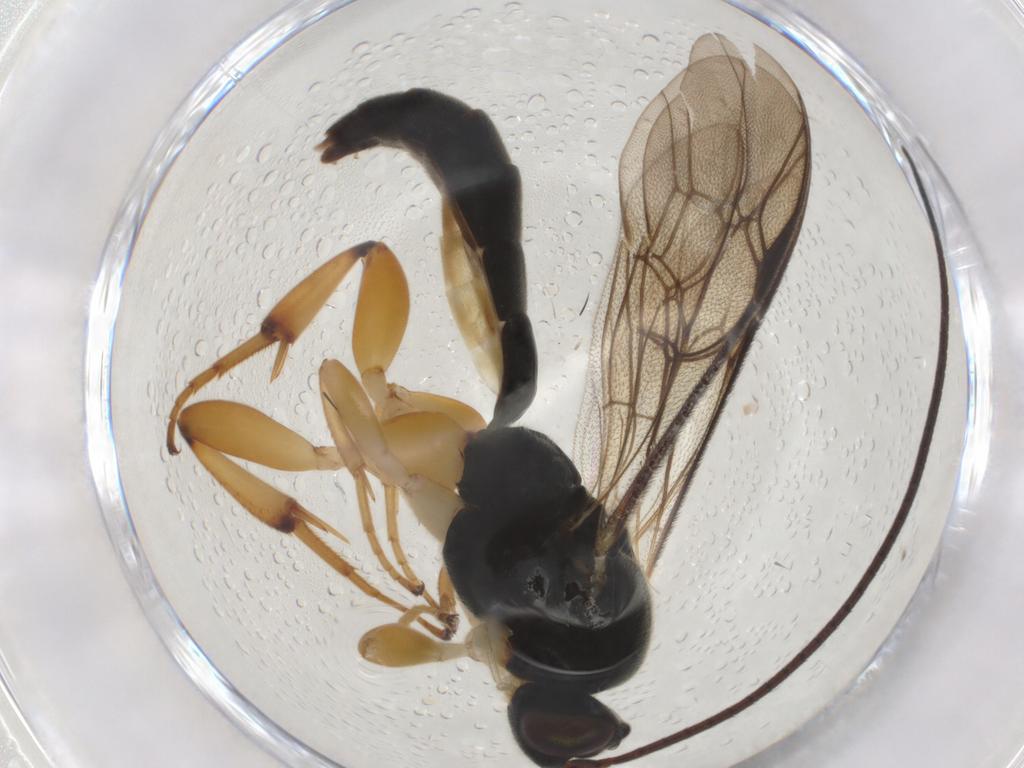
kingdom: Animalia
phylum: Arthropoda
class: Insecta
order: Hymenoptera
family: Ichneumonidae
